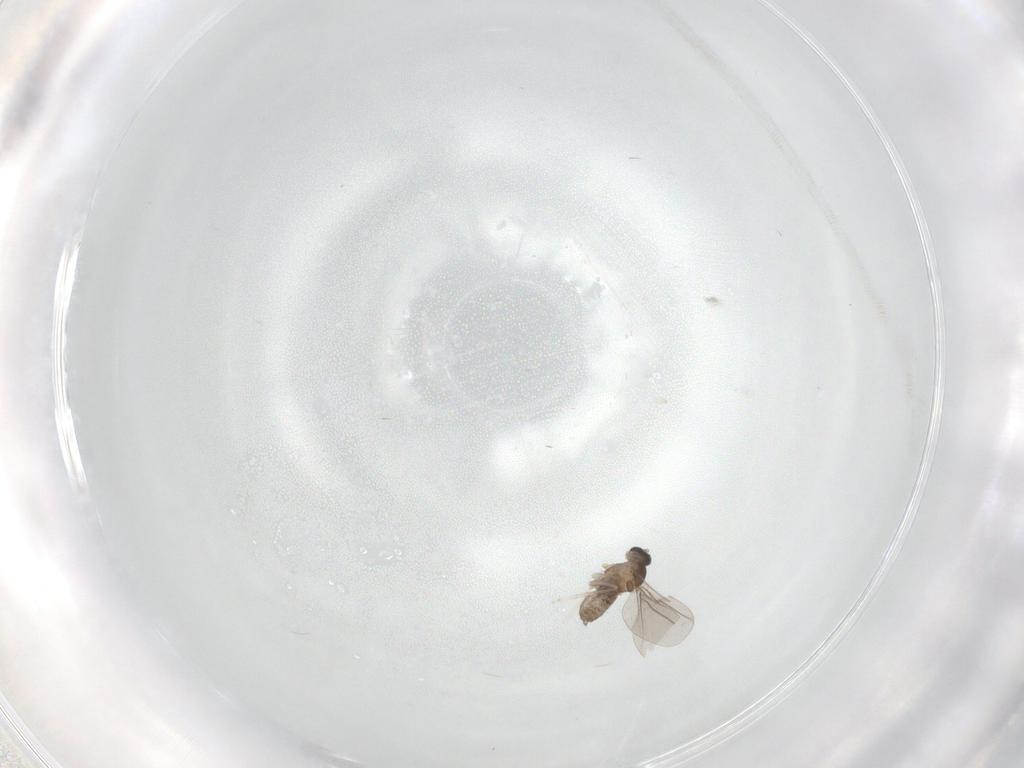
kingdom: Animalia
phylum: Arthropoda
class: Insecta
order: Diptera
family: Cecidomyiidae
